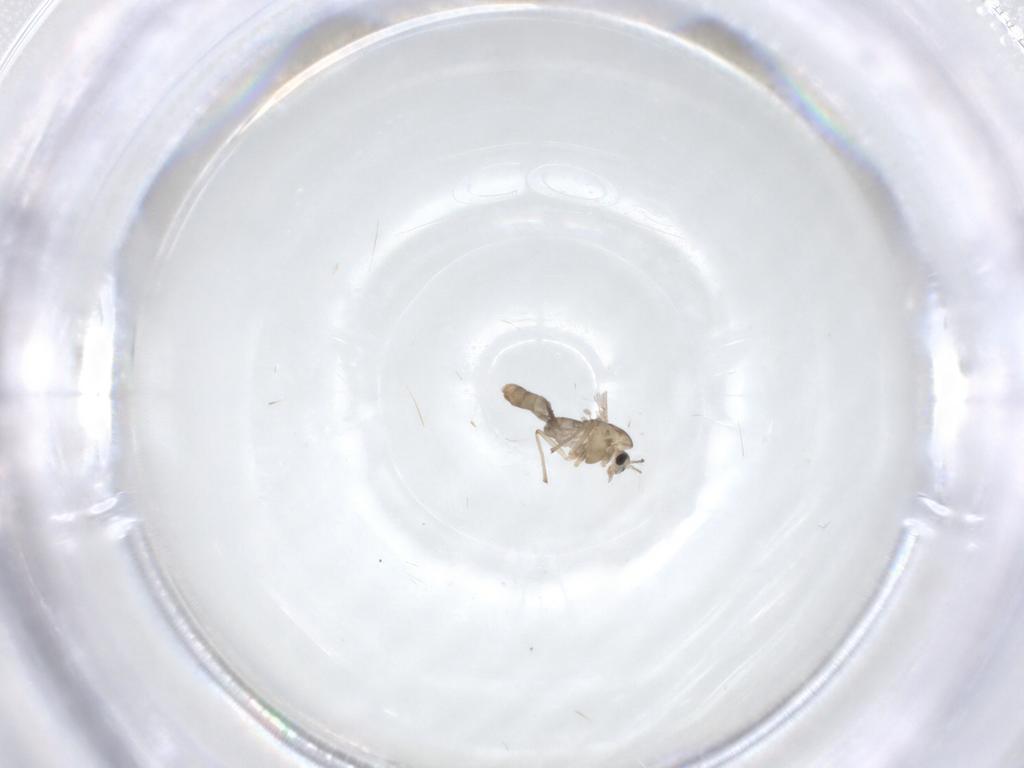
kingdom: Animalia
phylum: Arthropoda
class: Insecta
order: Diptera
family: Chironomidae
